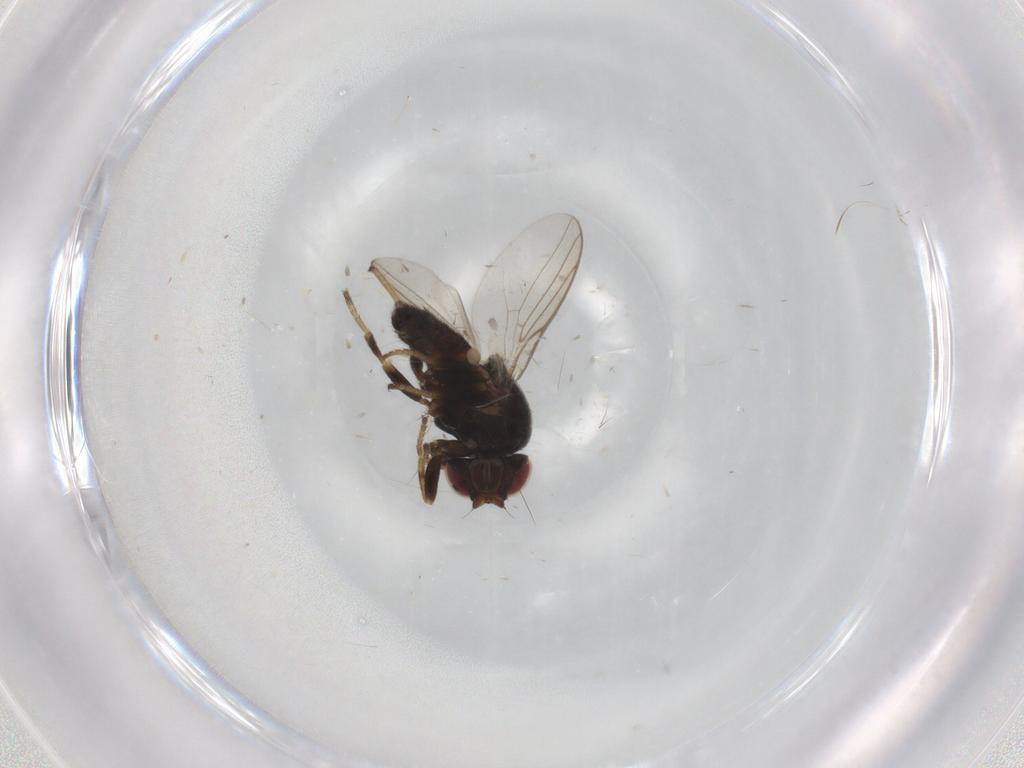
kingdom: Animalia
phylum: Arthropoda
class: Insecta
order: Diptera
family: Chloropidae
